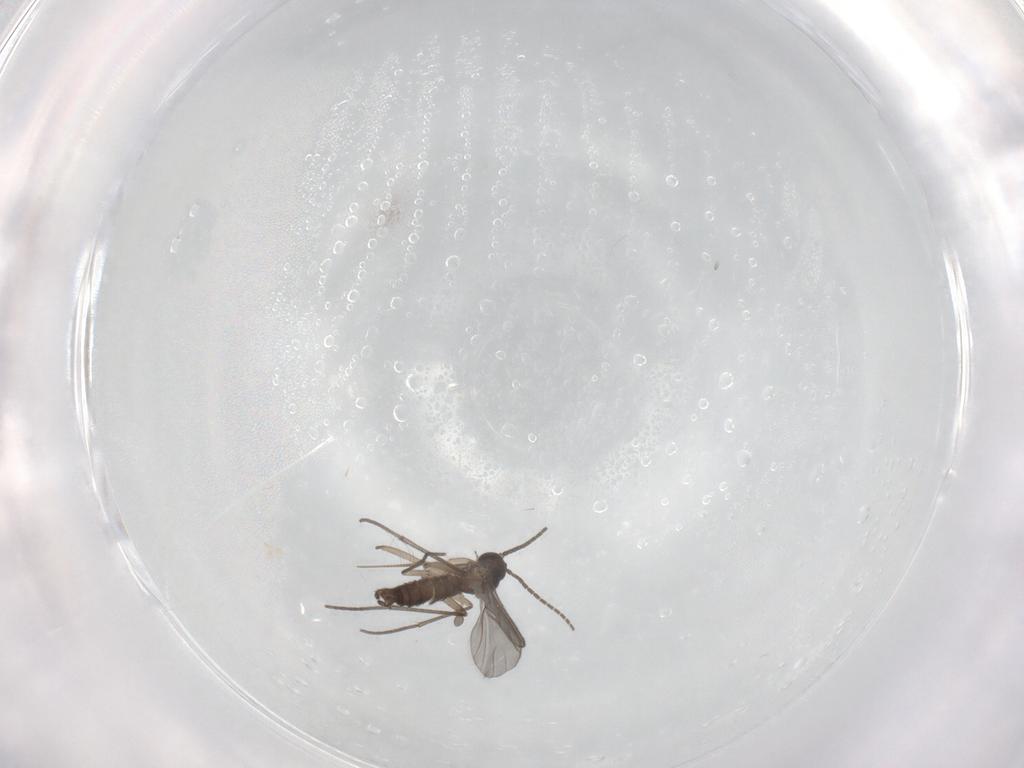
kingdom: Animalia
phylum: Arthropoda
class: Insecta
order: Diptera
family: Sciaridae
